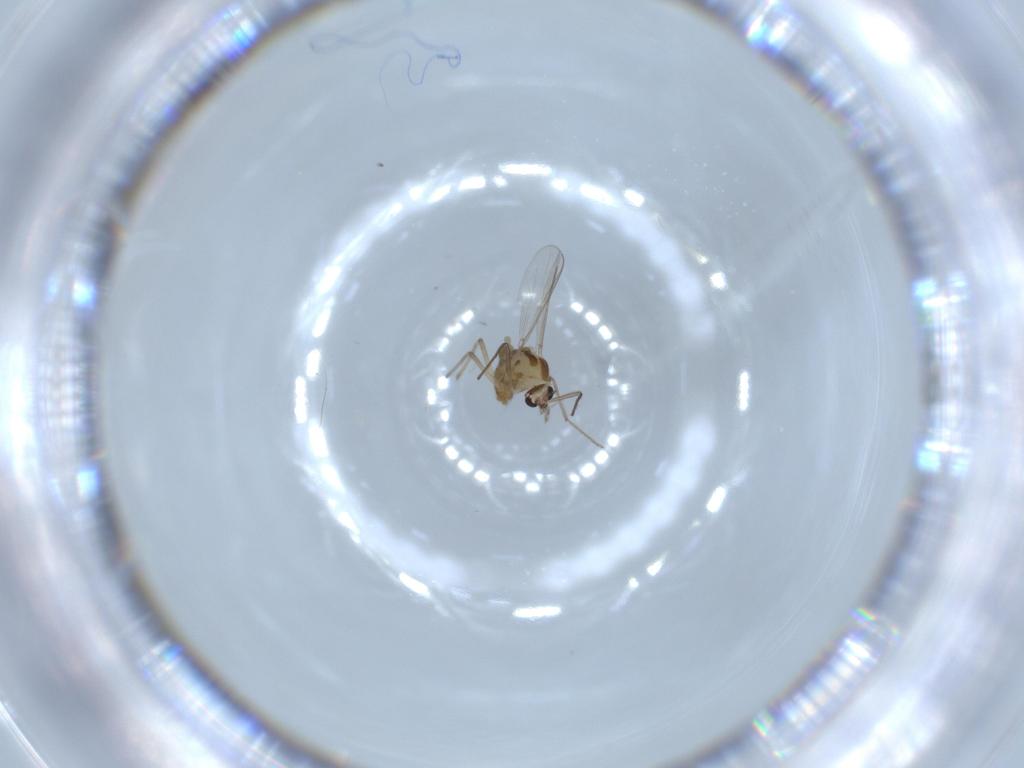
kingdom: Animalia
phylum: Arthropoda
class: Insecta
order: Diptera
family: Chironomidae
